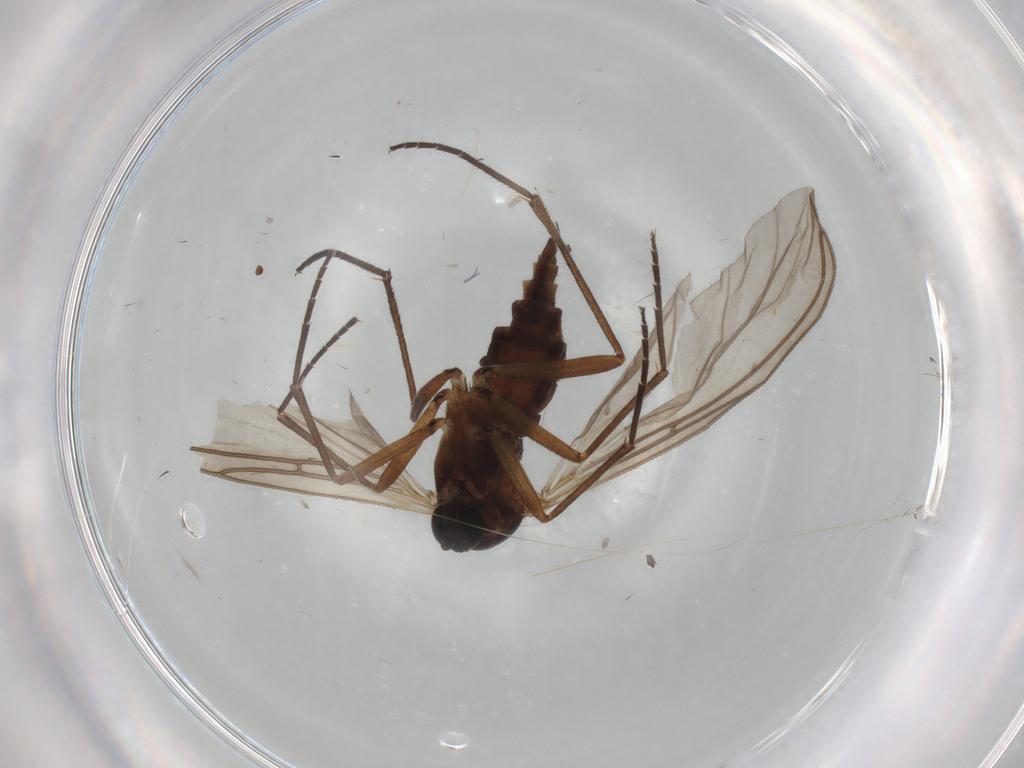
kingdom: Animalia
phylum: Arthropoda
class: Insecta
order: Diptera
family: Sciaridae
